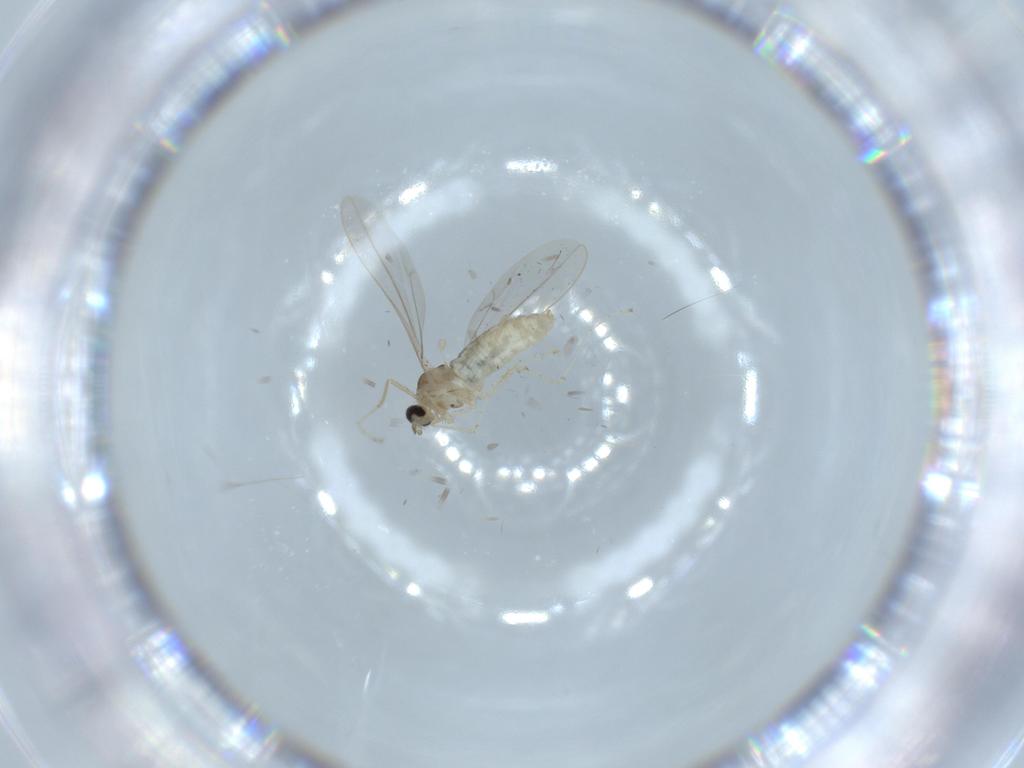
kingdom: Animalia
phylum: Arthropoda
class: Insecta
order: Diptera
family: Cecidomyiidae
